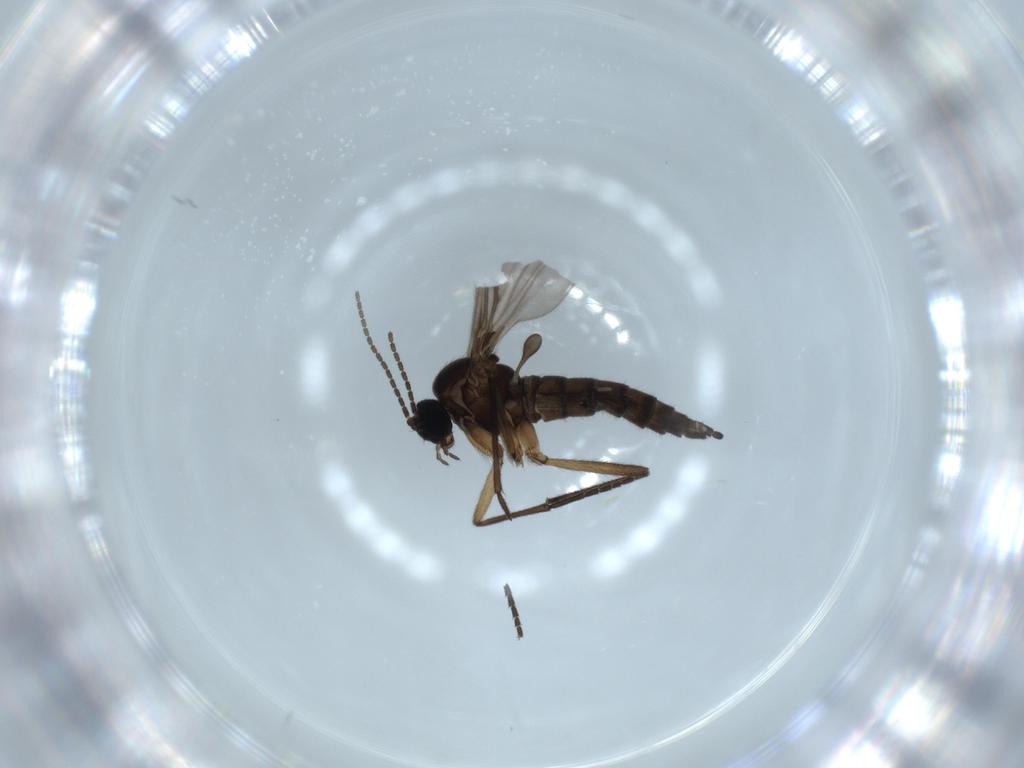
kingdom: Animalia
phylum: Arthropoda
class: Insecta
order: Diptera
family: Sciaridae
